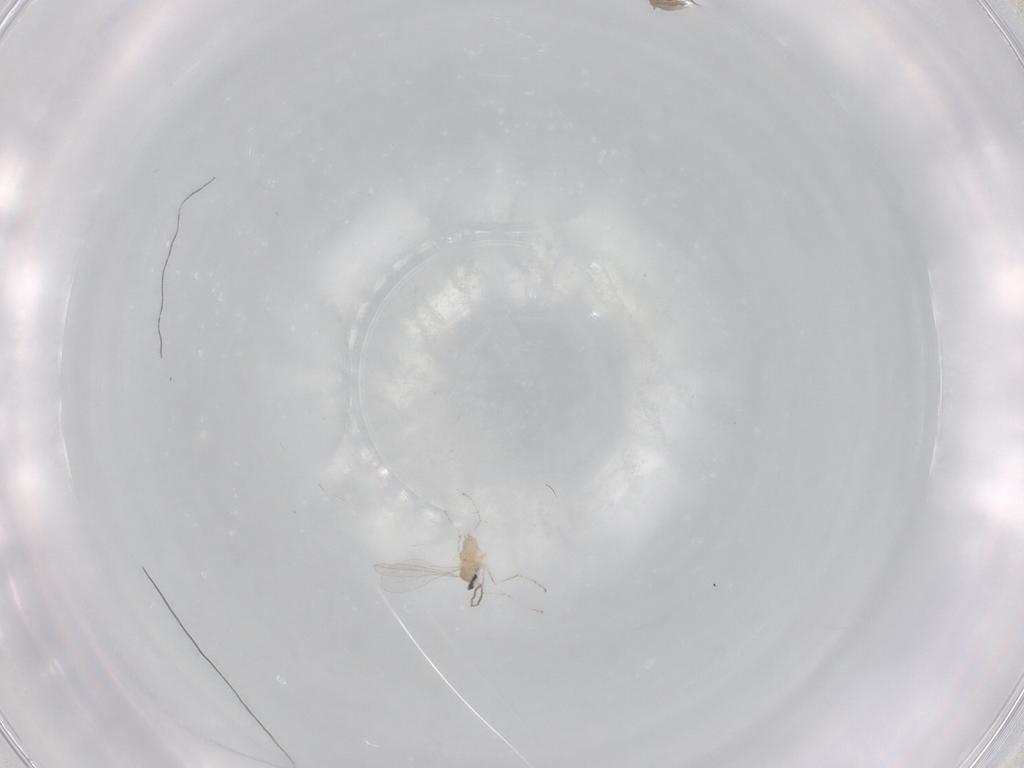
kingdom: Animalia
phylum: Arthropoda
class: Insecta
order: Diptera
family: Cecidomyiidae
